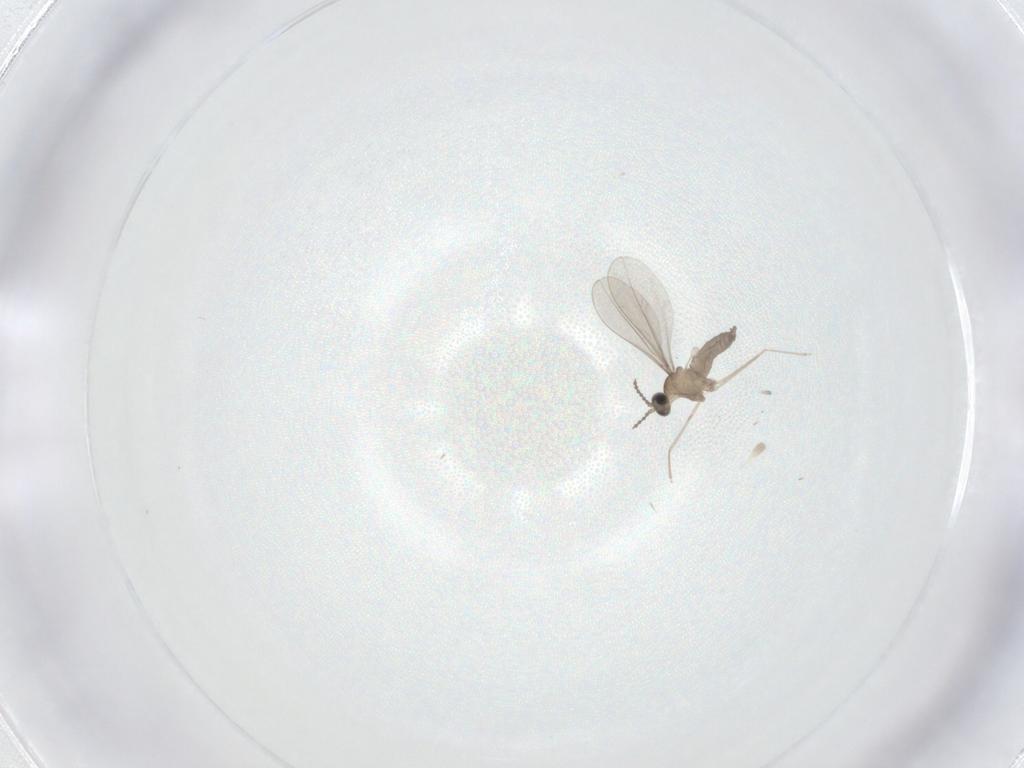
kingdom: Animalia
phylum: Arthropoda
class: Insecta
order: Diptera
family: Cecidomyiidae
